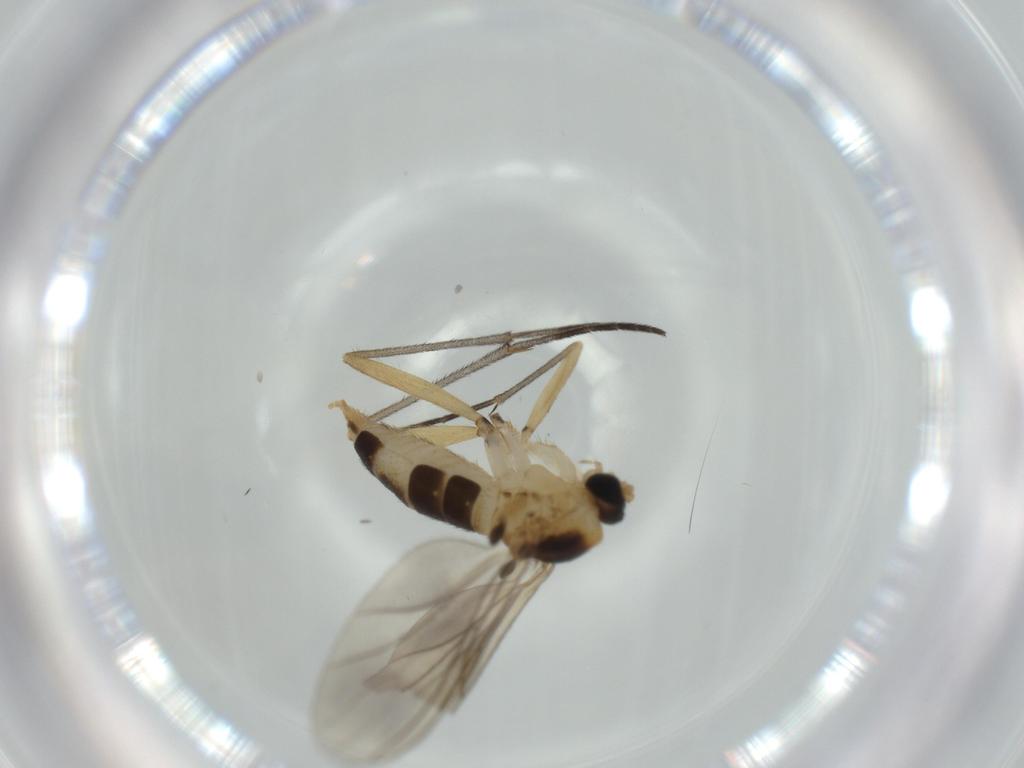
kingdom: Animalia
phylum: Arthropoda
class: Insecta
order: Diptera
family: Sciaridae
